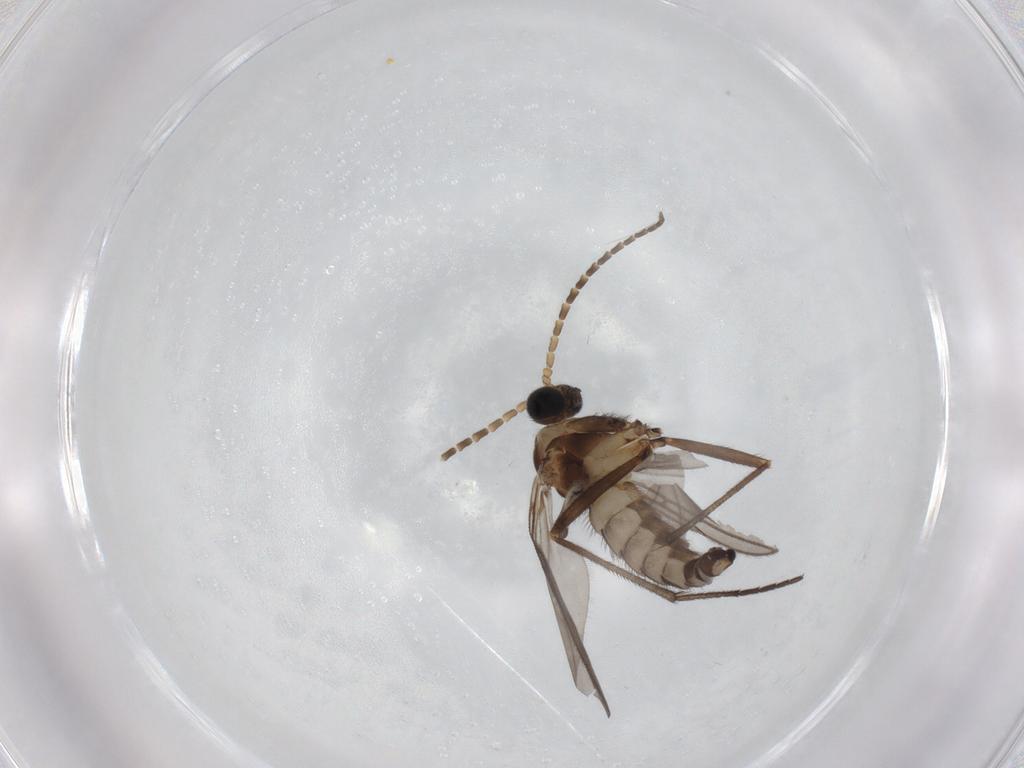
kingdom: Animalia
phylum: Arthropoda
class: Insecta
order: Diptera
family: Sciaridae
